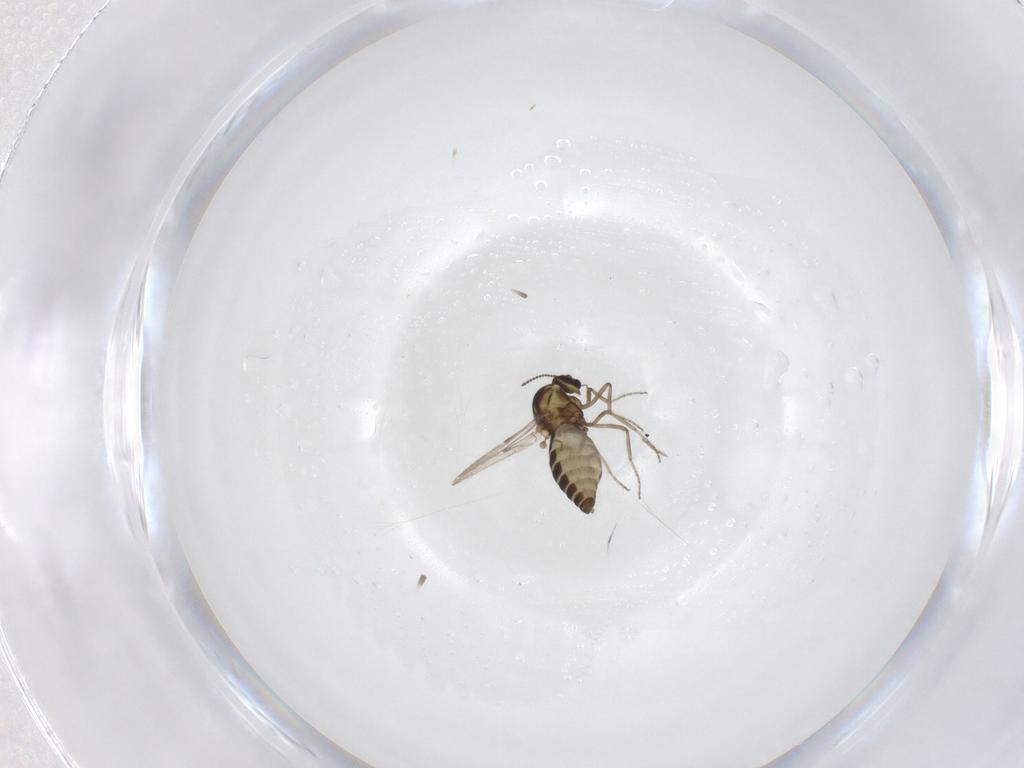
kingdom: Animalia
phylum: Arthropoda
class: Insecta
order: Diptera
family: Ceratopogonidae
